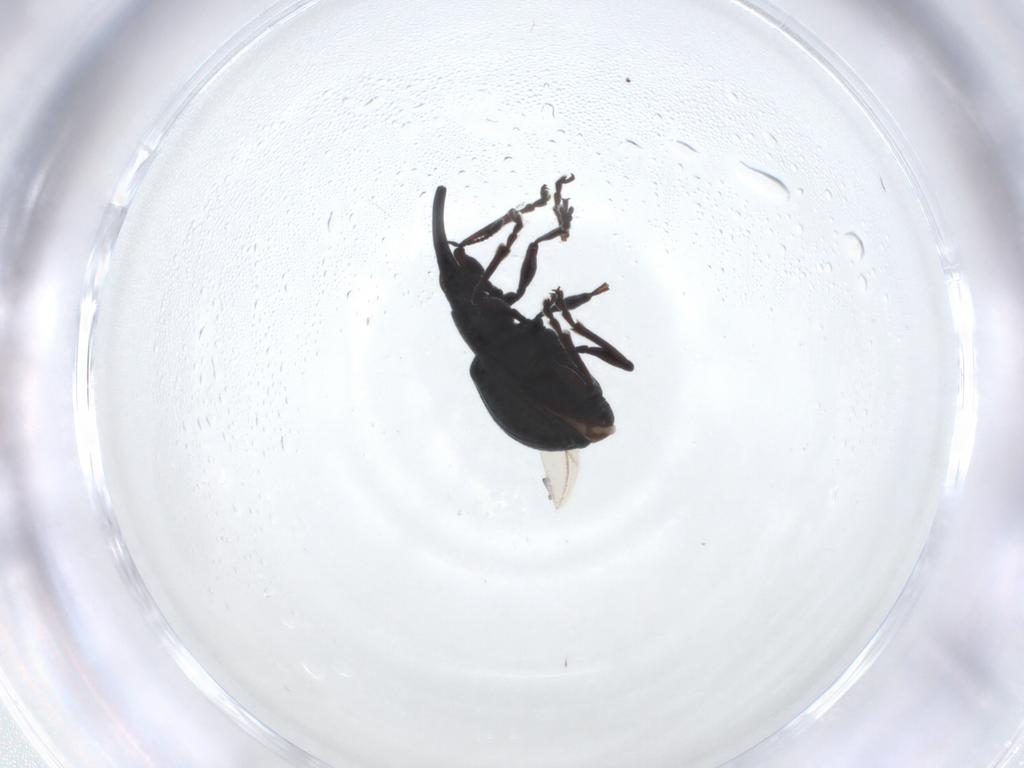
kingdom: Animalia
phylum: Arthropoda
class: Insecta
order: Coleoptera
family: Brentidae
